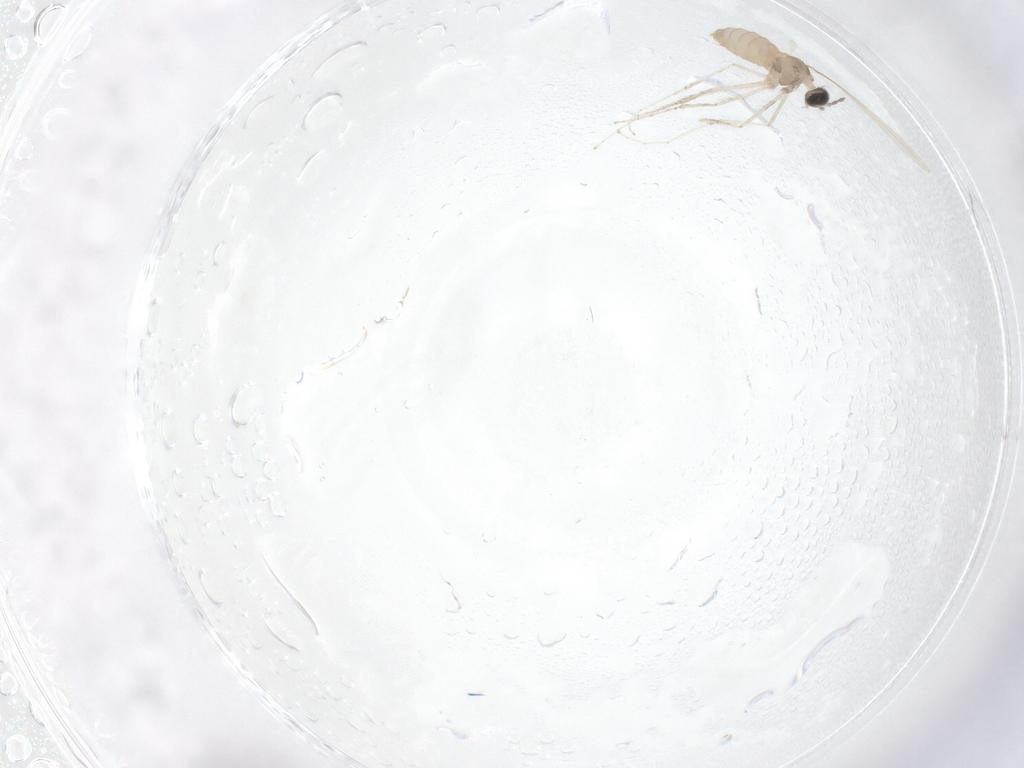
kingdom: Animalia
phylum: Arthropoda
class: Insecta
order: Diptera
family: Cecidomyiidae
